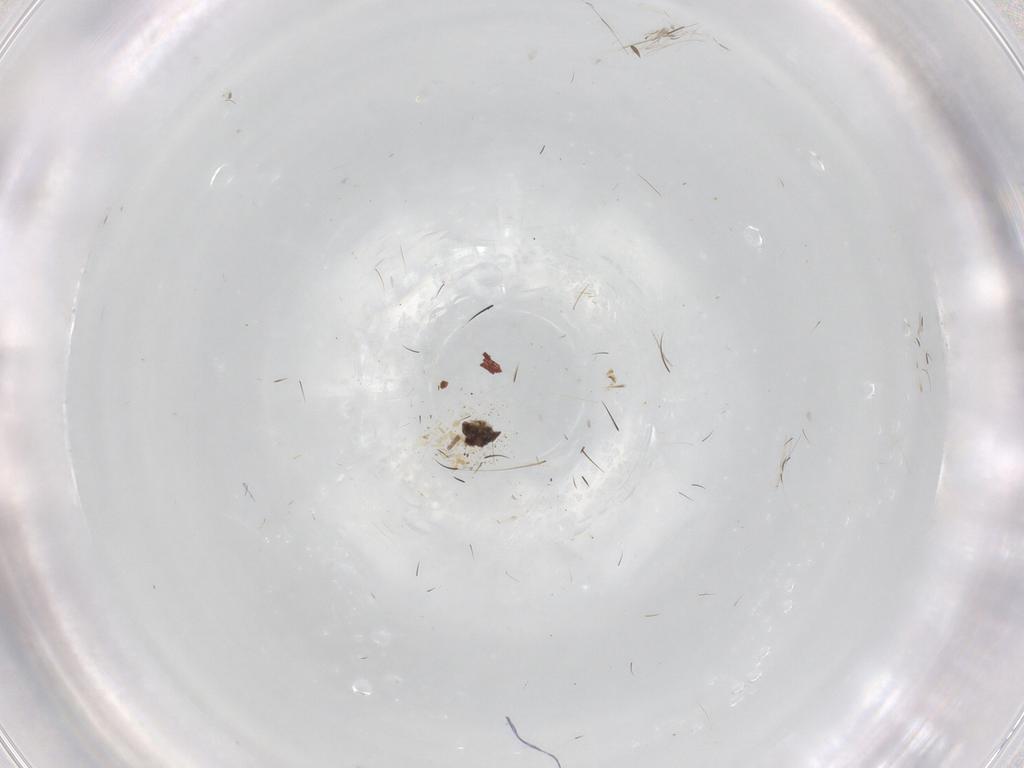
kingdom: Animalia
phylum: Arthropoda
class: Insecta
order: Diptera
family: Chironomidae
